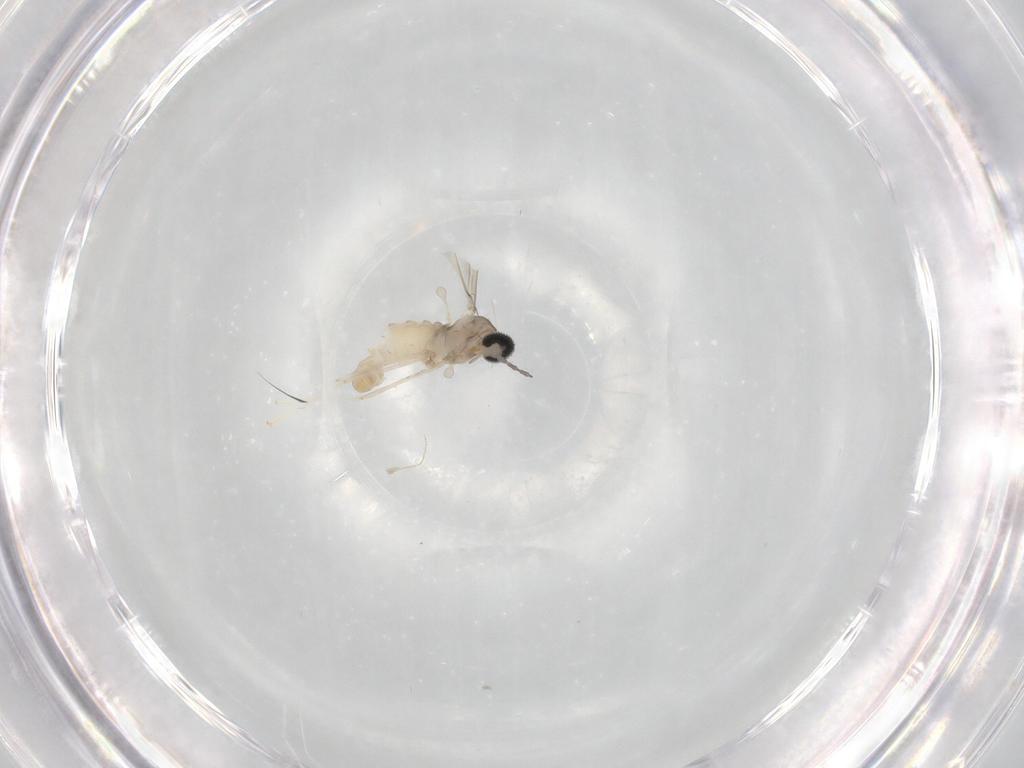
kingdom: Animalia
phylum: Arthropoda
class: Insecta
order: Diptera
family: Cecidomyiidae
